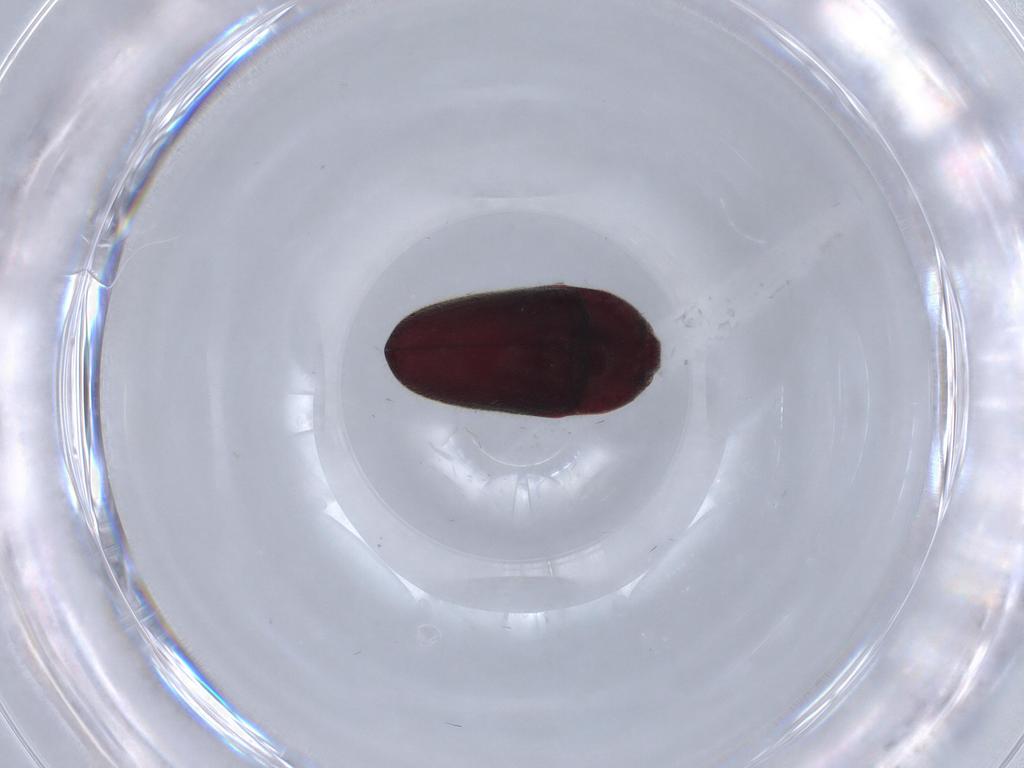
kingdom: Animalia
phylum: Arthropoda
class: Insecta
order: Coleoptera
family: Throscidae
